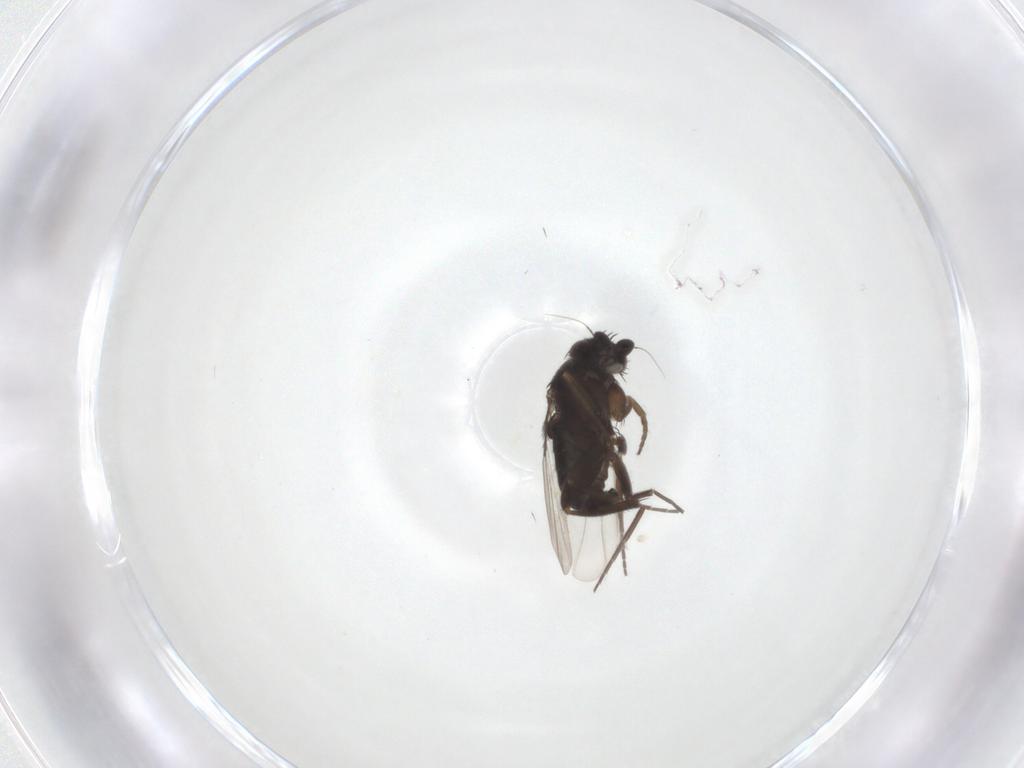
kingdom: Animalia
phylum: Arthropoda
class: Insecta
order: Diptera
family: Phoridae
